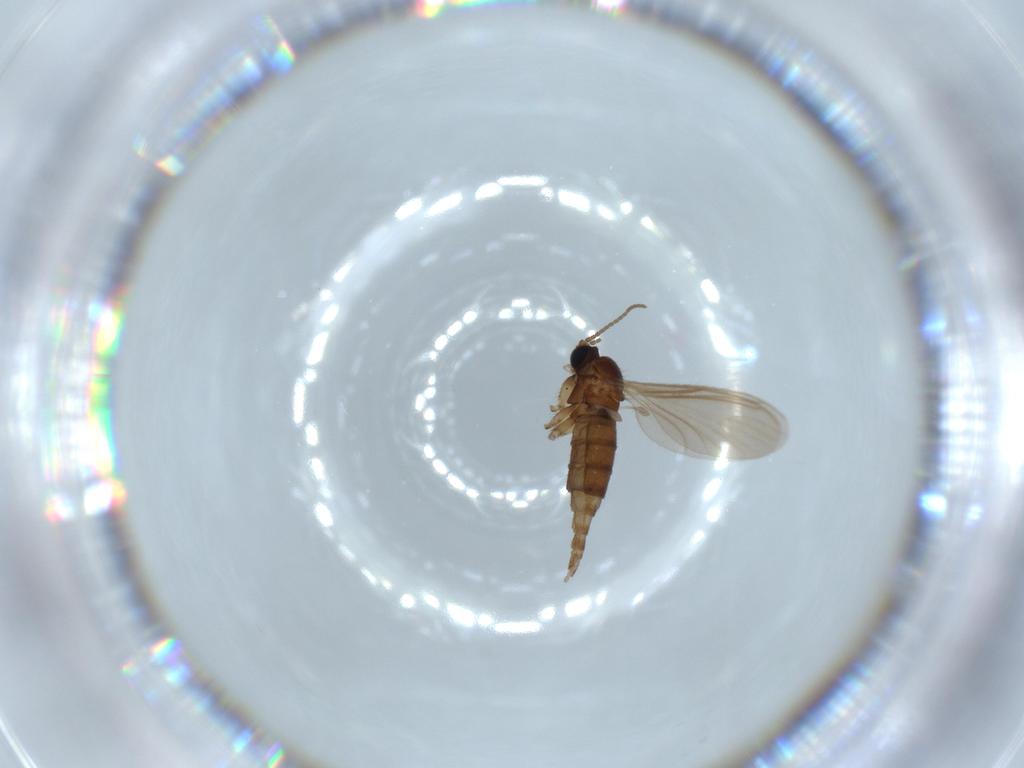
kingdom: Animalia
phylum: Arthropoda
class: Insecta
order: Diptera
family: Sciaridae
